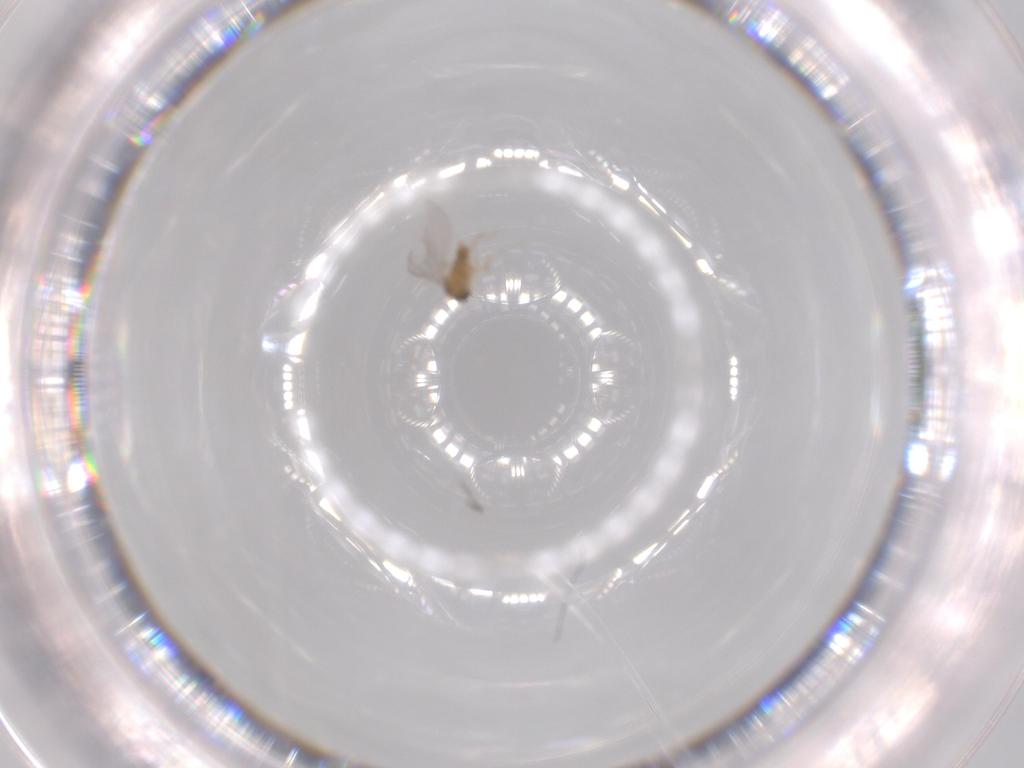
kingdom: Animalia
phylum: Arthropoda
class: Insecta
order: Diptera
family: Cecidomyiidae
